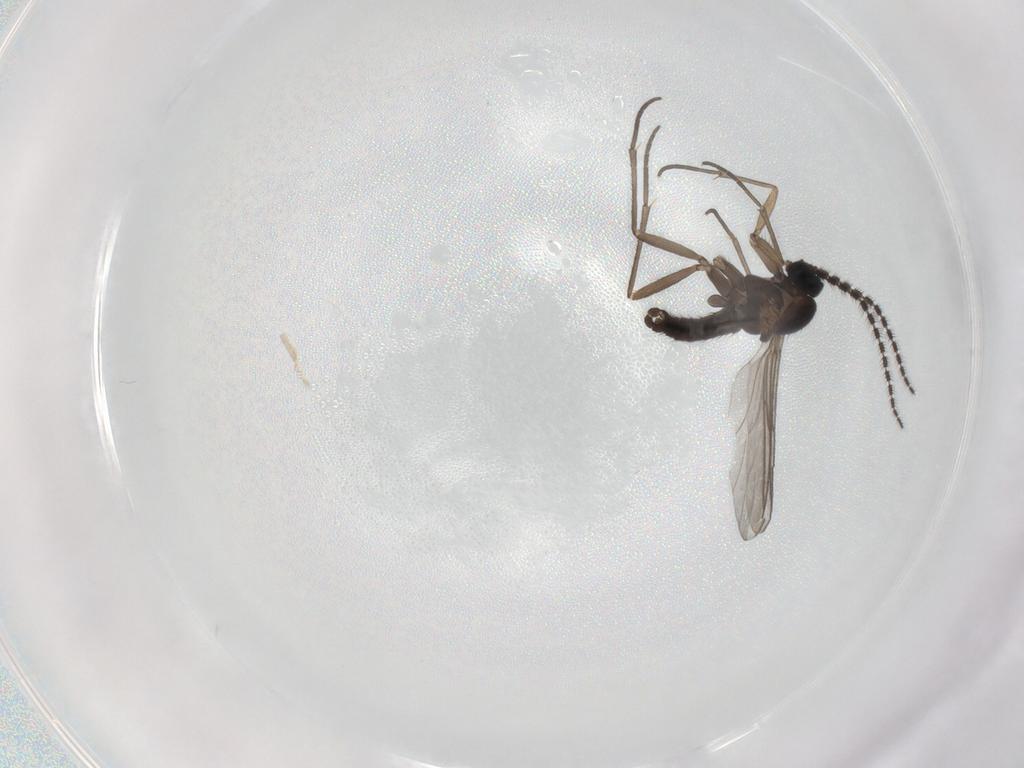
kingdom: Animalia
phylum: Arthropoda
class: Insecta
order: Diptera
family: Sciaridae
